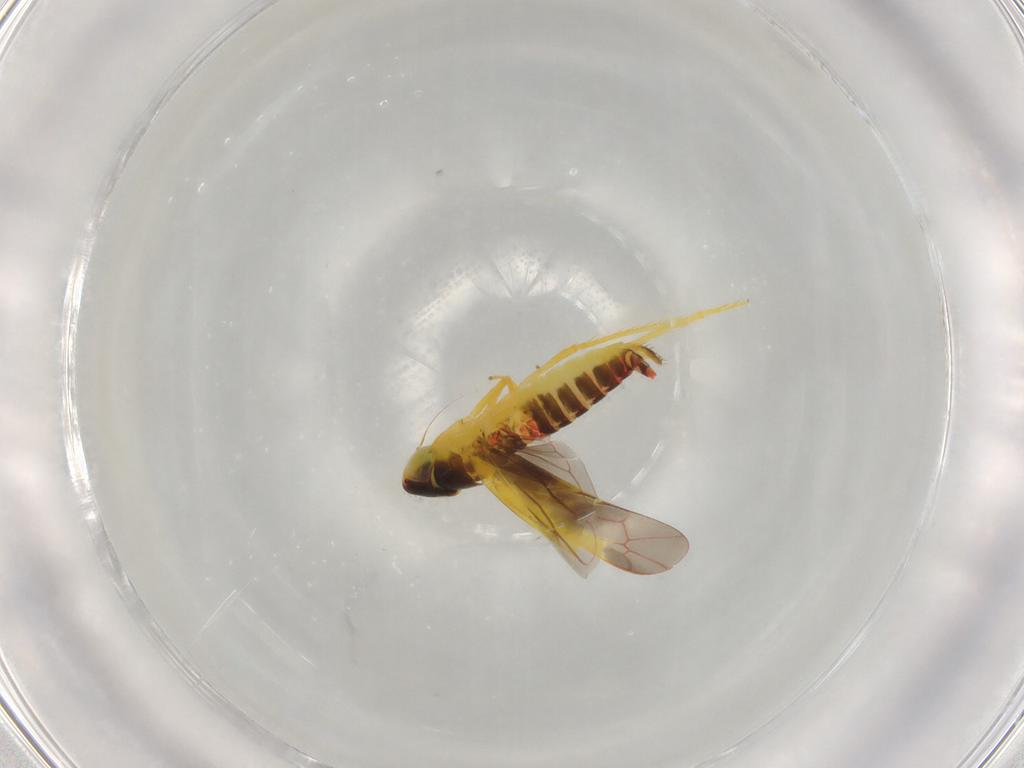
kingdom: Animalia
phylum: Arthropoda
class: Insecta
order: Hemiptera
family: Cicadellidae
